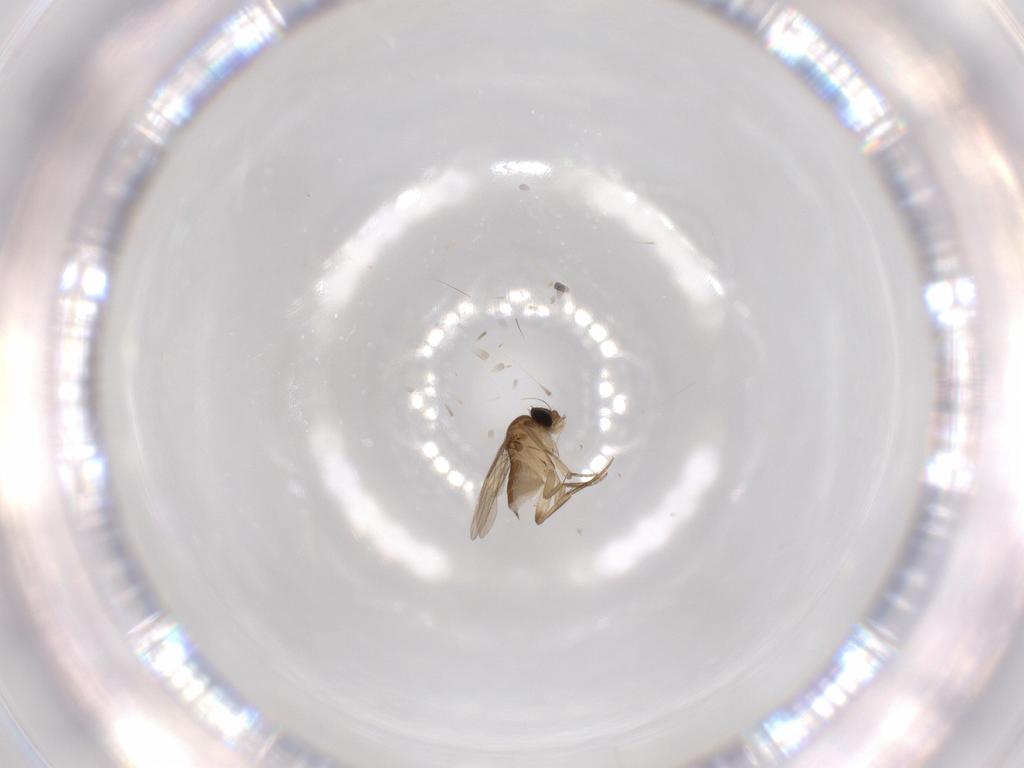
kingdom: Animalia
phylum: Arthropoda
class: Insecta
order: Diptera
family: Phoridae
